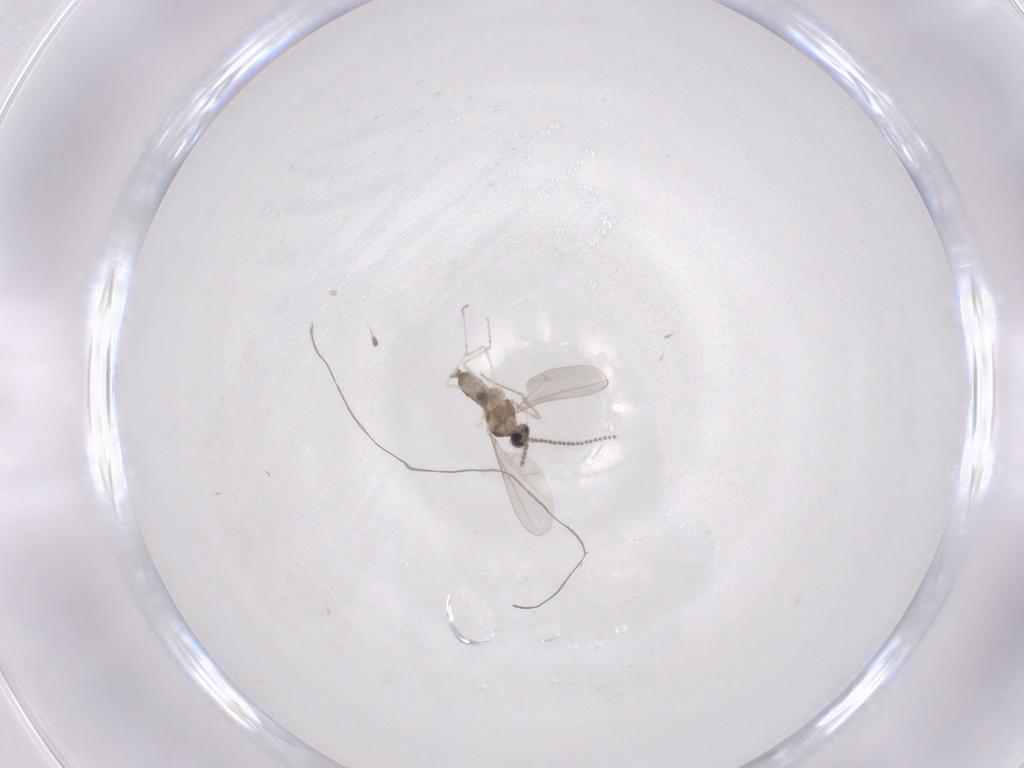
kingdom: Animalia
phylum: Arthropoda
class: Insecta
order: Diptera
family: Cecidomyiidae
